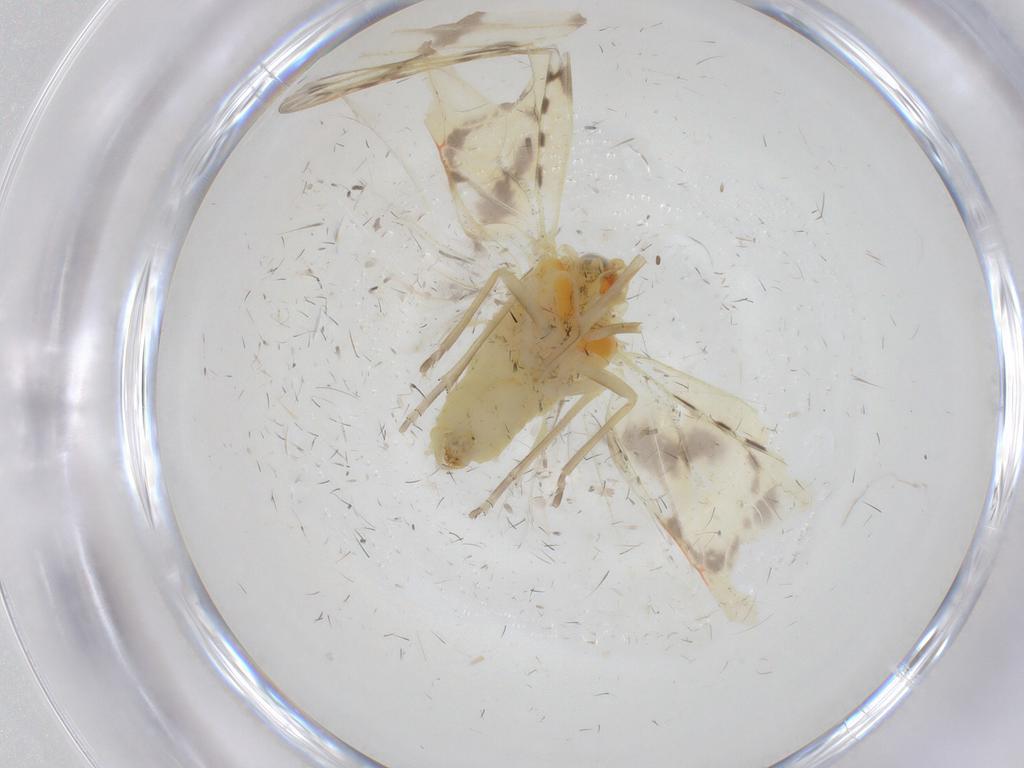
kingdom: Animalia
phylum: Arthropoda
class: Insecta
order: Hemiptera
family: Derbidae
